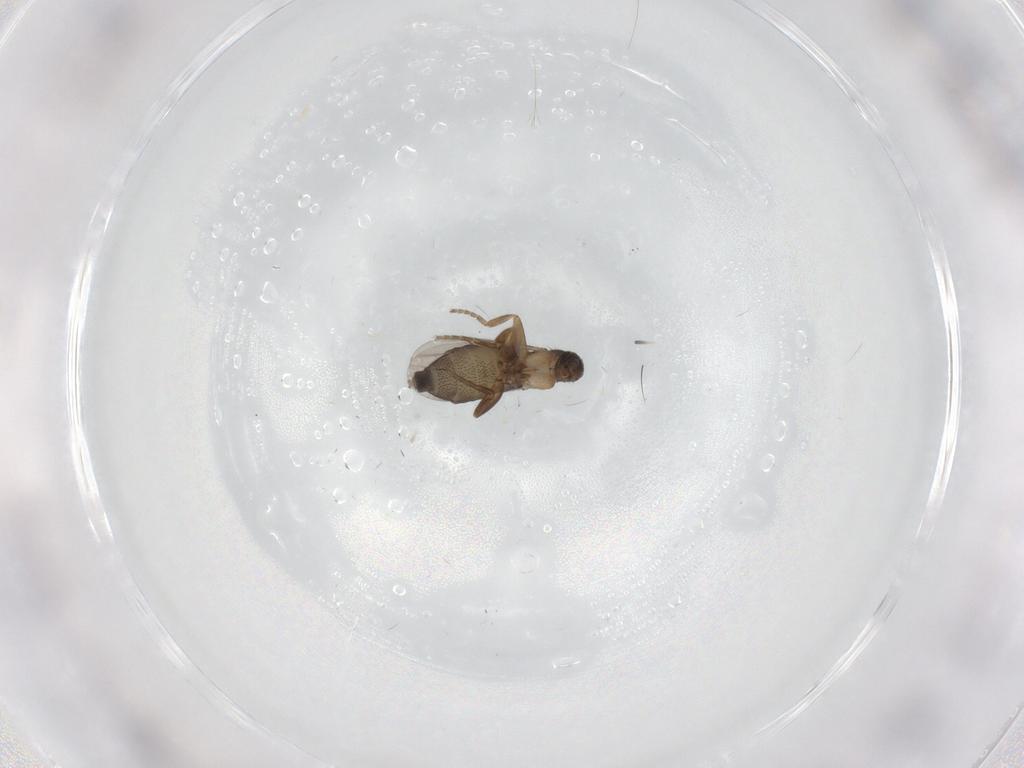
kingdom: Animalia
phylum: Arthropoda
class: Insecta
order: Diptera
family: Phoridae
